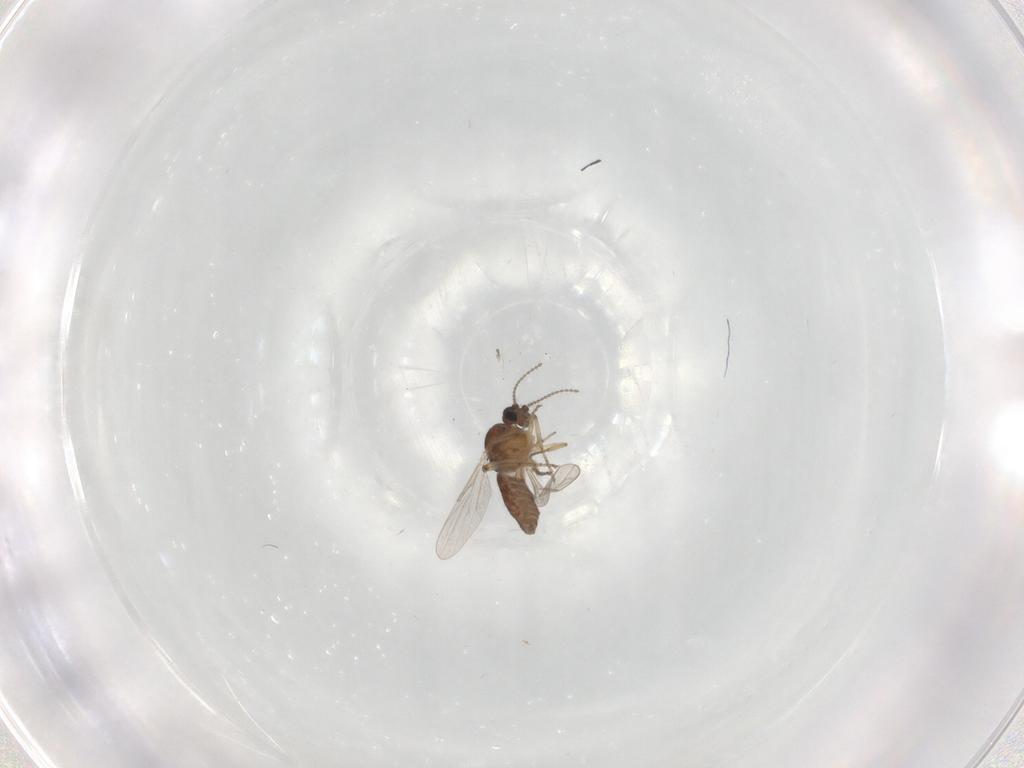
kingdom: Animalia
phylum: Arthropoda
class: Insecta
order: Diptera
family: Ceratopogonidae
